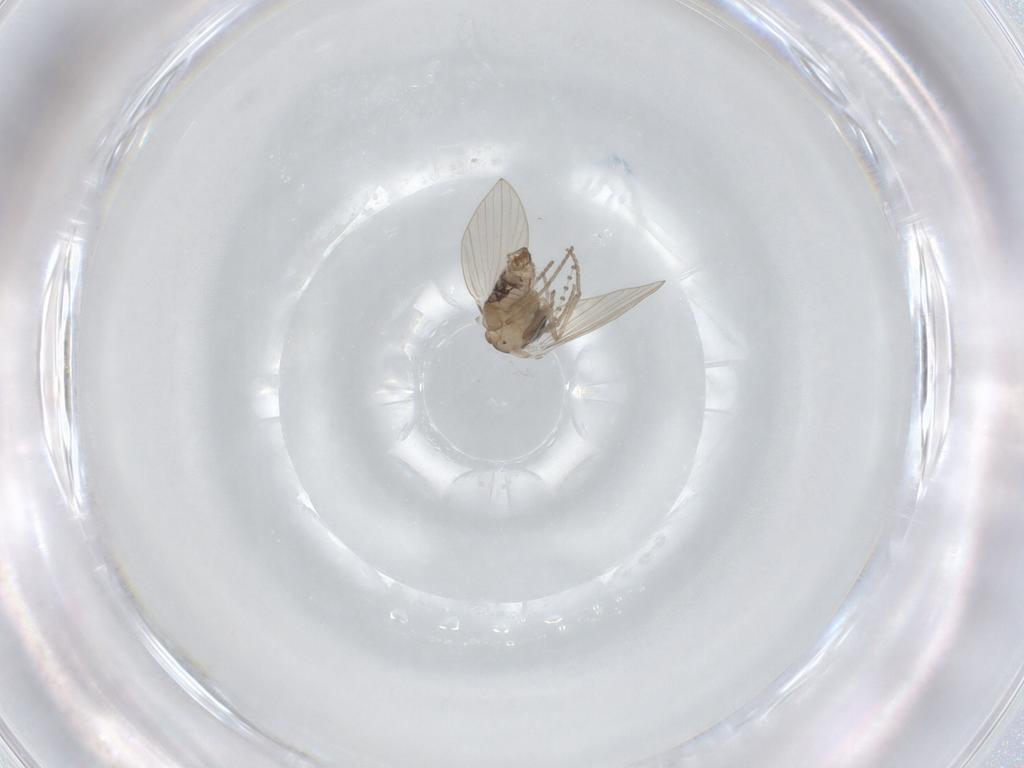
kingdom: Animalia
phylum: Arthropoda
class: Insecta
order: Diptera
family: Psychodidae
